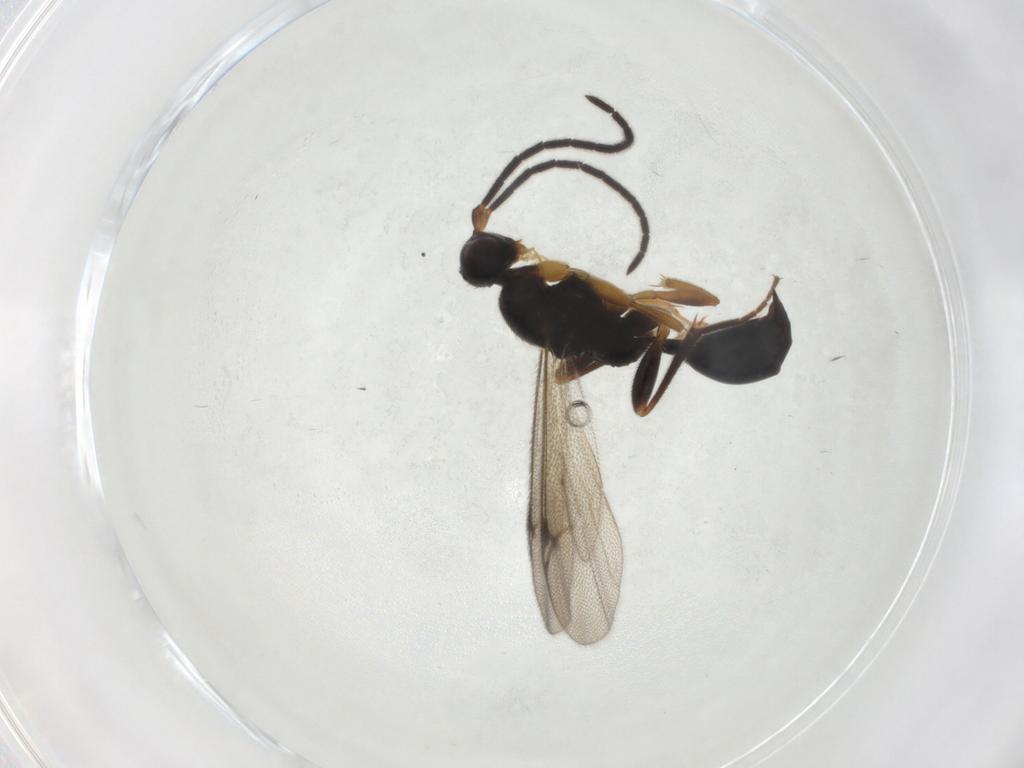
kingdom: Animalia
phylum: Arthropoda
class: Insecta
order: Hymenoptera
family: Proctotrupidae
